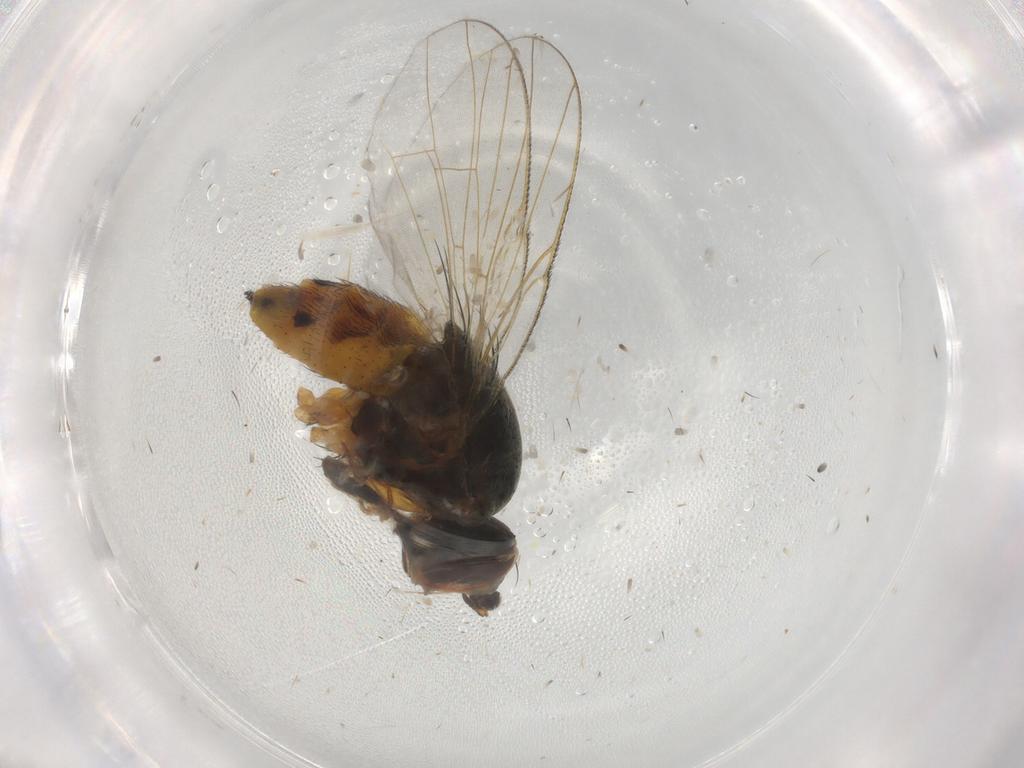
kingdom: Animalia
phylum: Arthropoda
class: Insecta
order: Diptera
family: Muscidae
